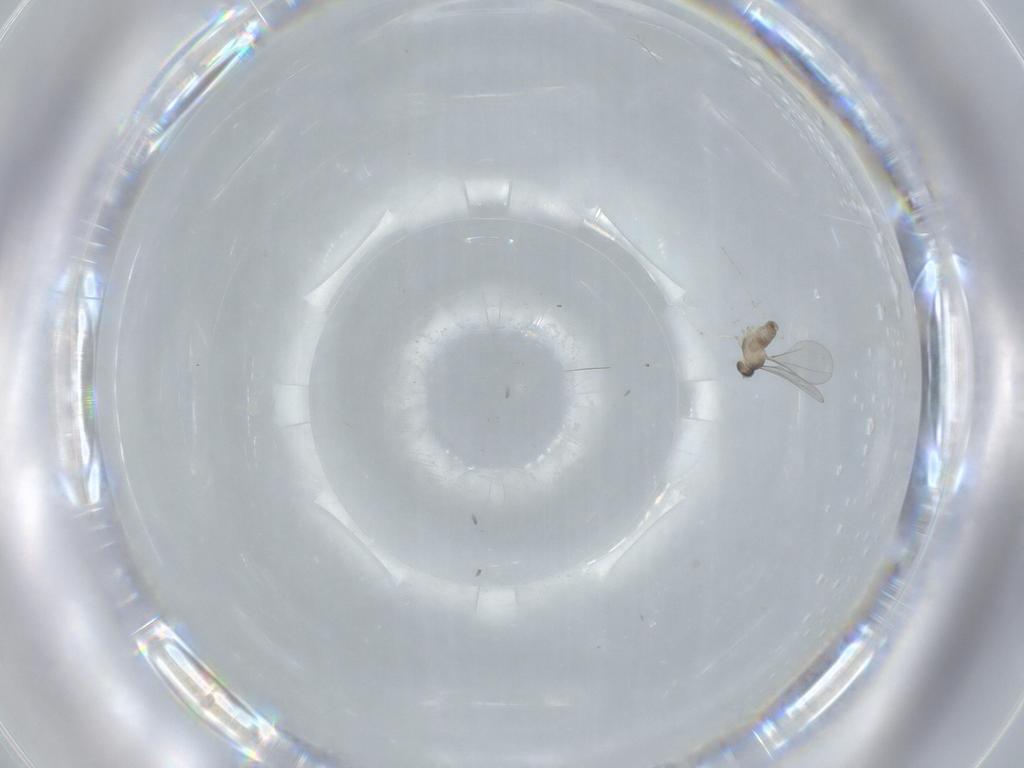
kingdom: Animalia
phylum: Arthropoda
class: Insecta
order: Diptera
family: Cecidomyiidae
